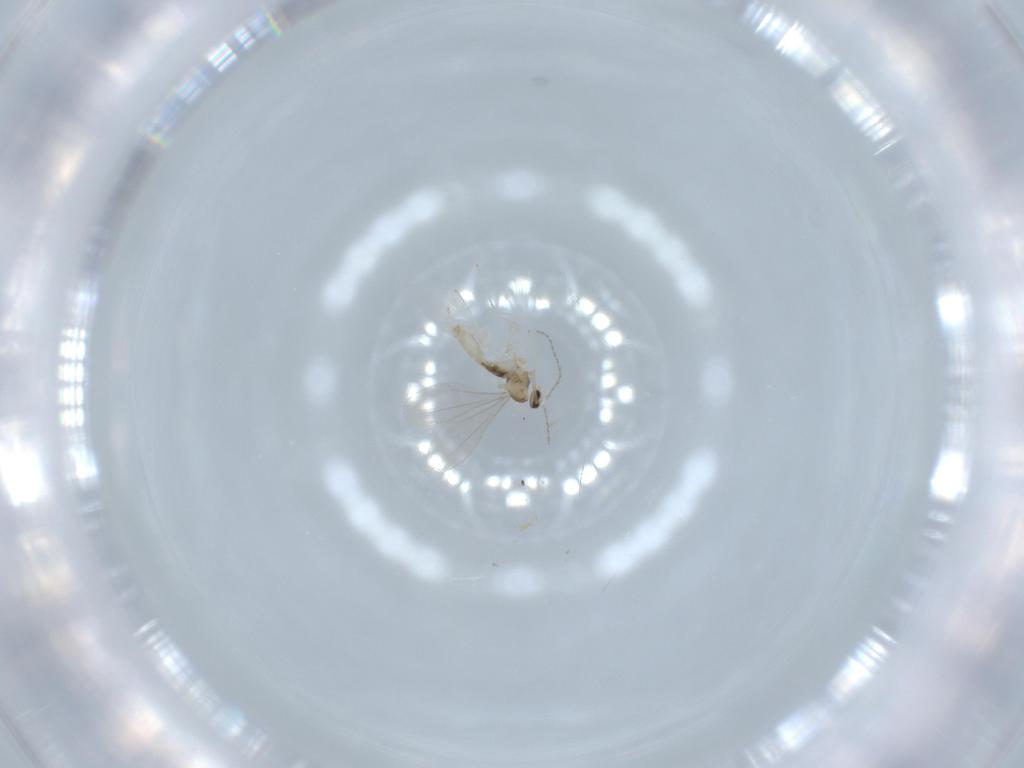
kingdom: Animalia
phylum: Arthropoda
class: Insecta
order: Diptera
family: Cecidomyiidae
